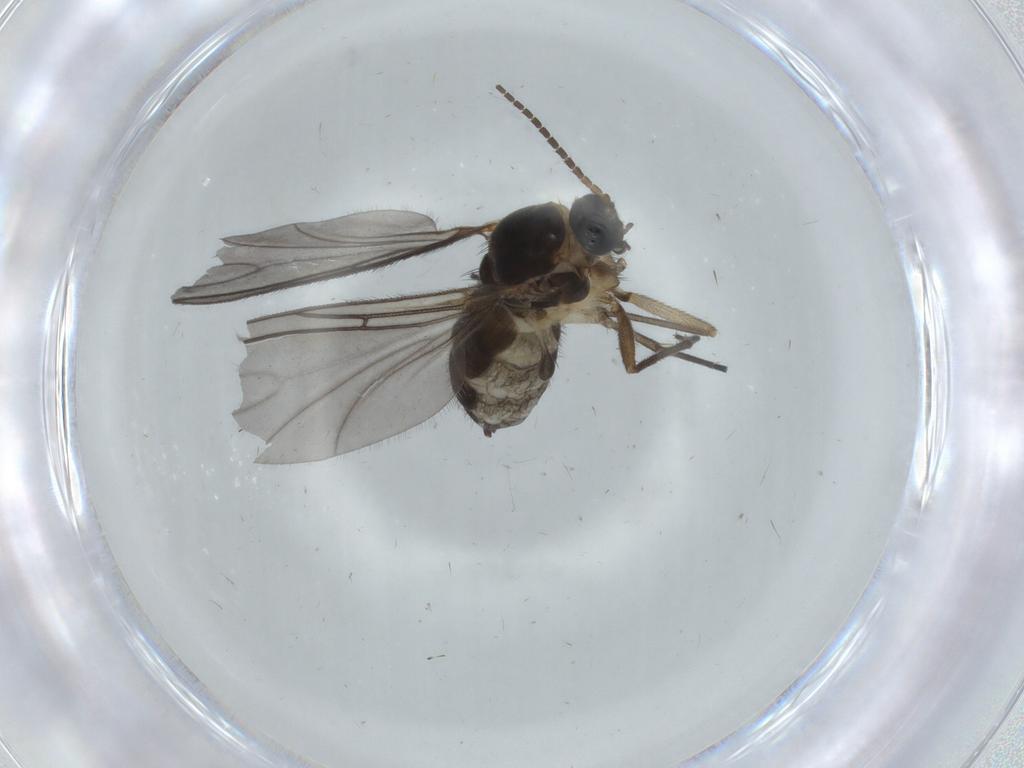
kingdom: Animalia
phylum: Arthropoda
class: Insecta
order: Diptera
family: Sciaridae
